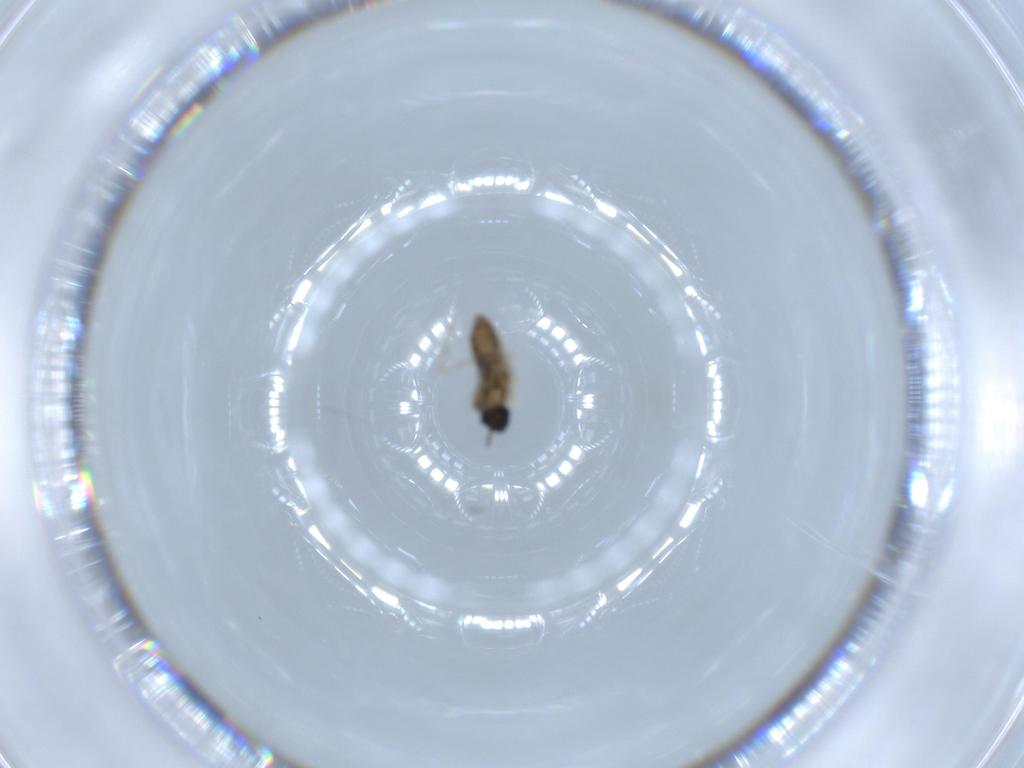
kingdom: Animalia
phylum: Arthropoda
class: Insecta
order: Diptera
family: Cecidomyiidae
